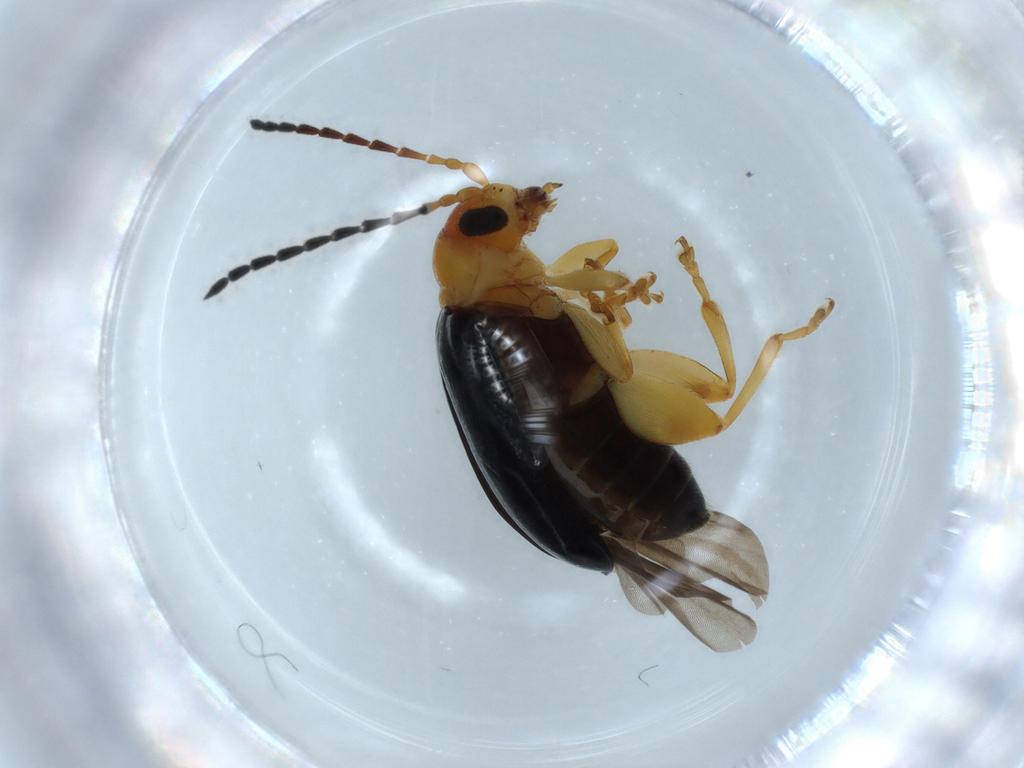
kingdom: Animalia
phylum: Arthropoda
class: Insecta
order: Coleoptera
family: Chrysomelidae
